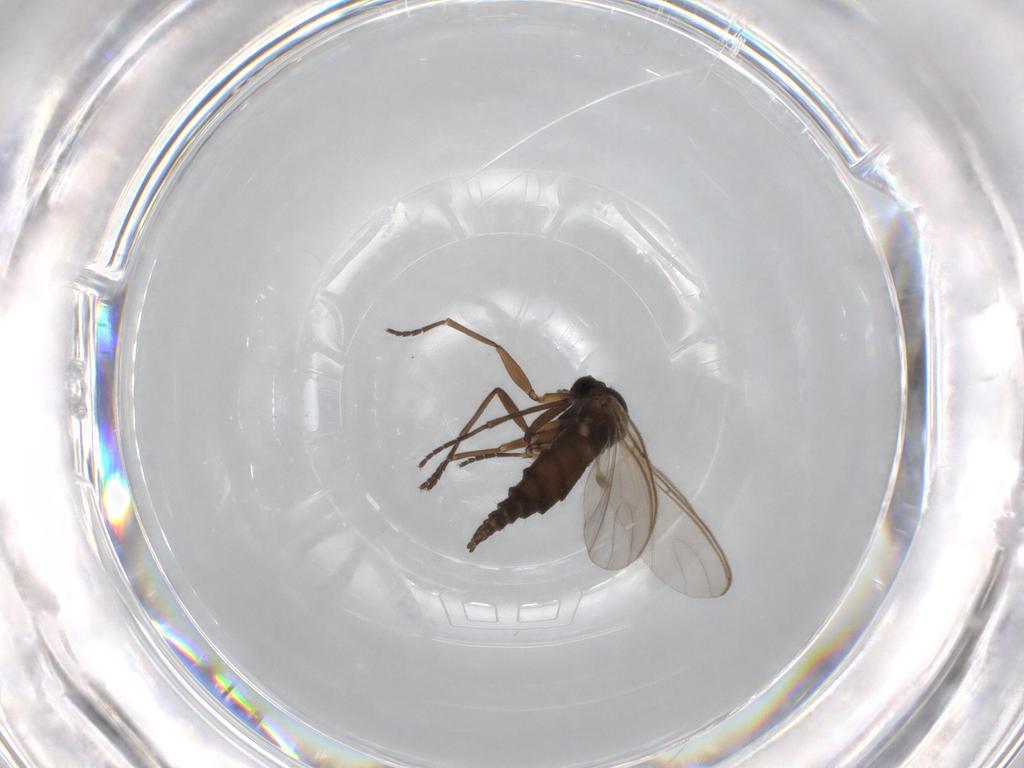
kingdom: Animalia
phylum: Arthropoda
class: Insecta
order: Diptera
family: Sciaridae
